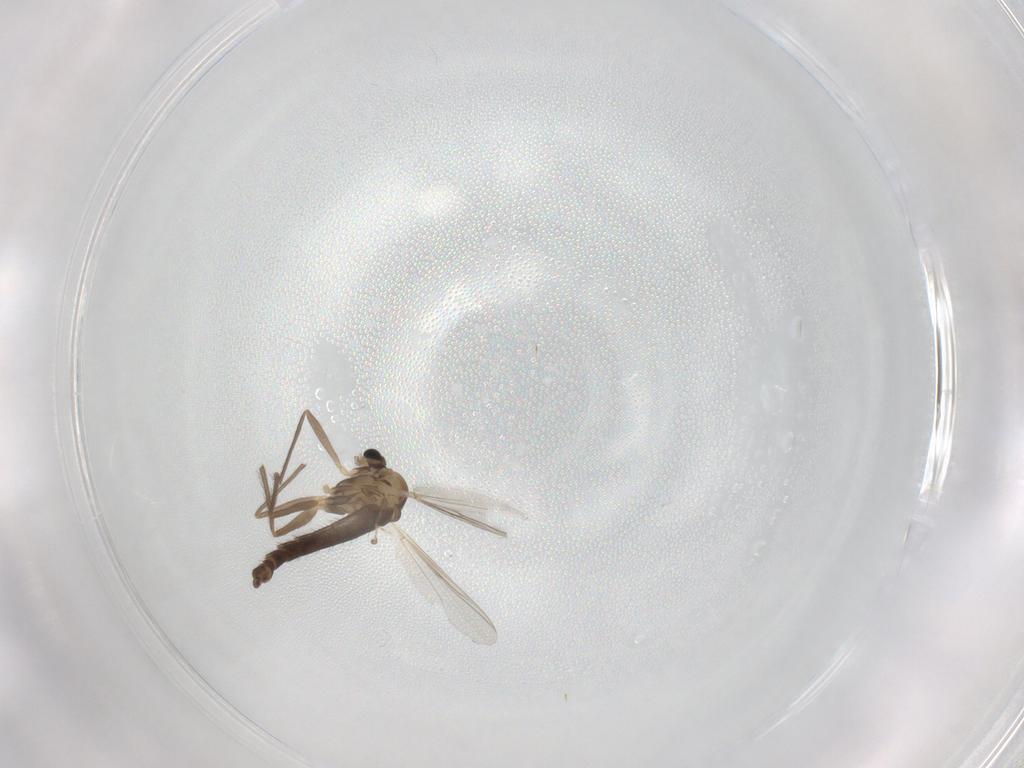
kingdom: Animalia
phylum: Arthropoda
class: Insecta
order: Diptera
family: Chironomidae
